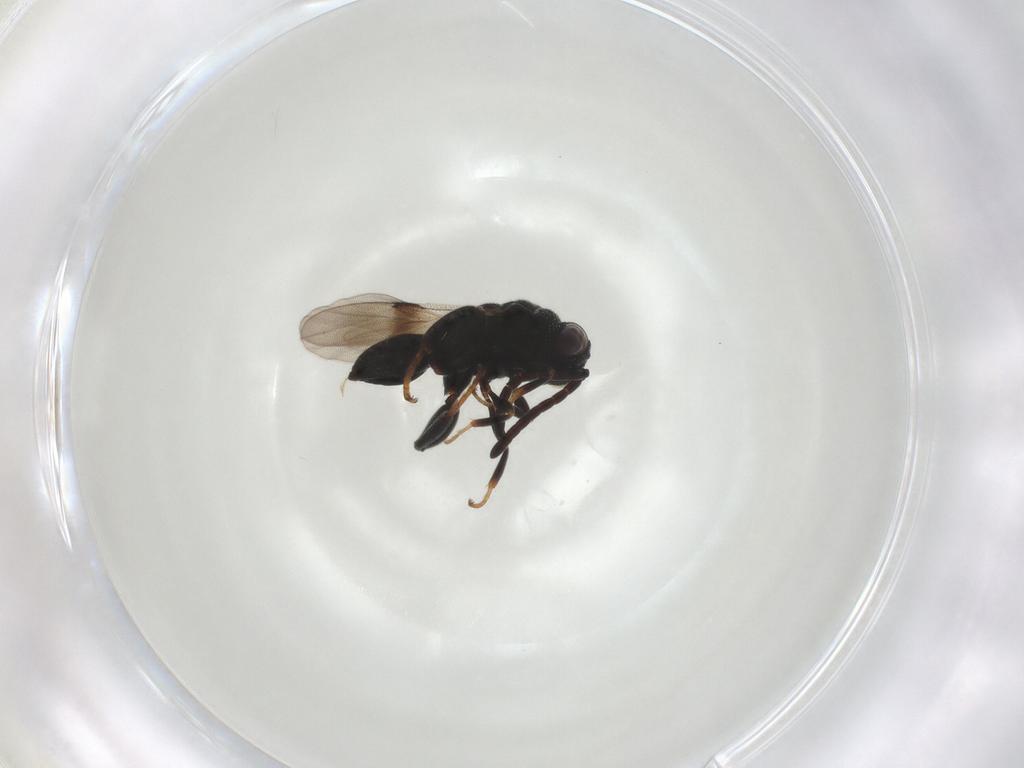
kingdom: Animalia
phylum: Arthropoda
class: Insecta
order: Hymenoptera
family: Chalcididae
